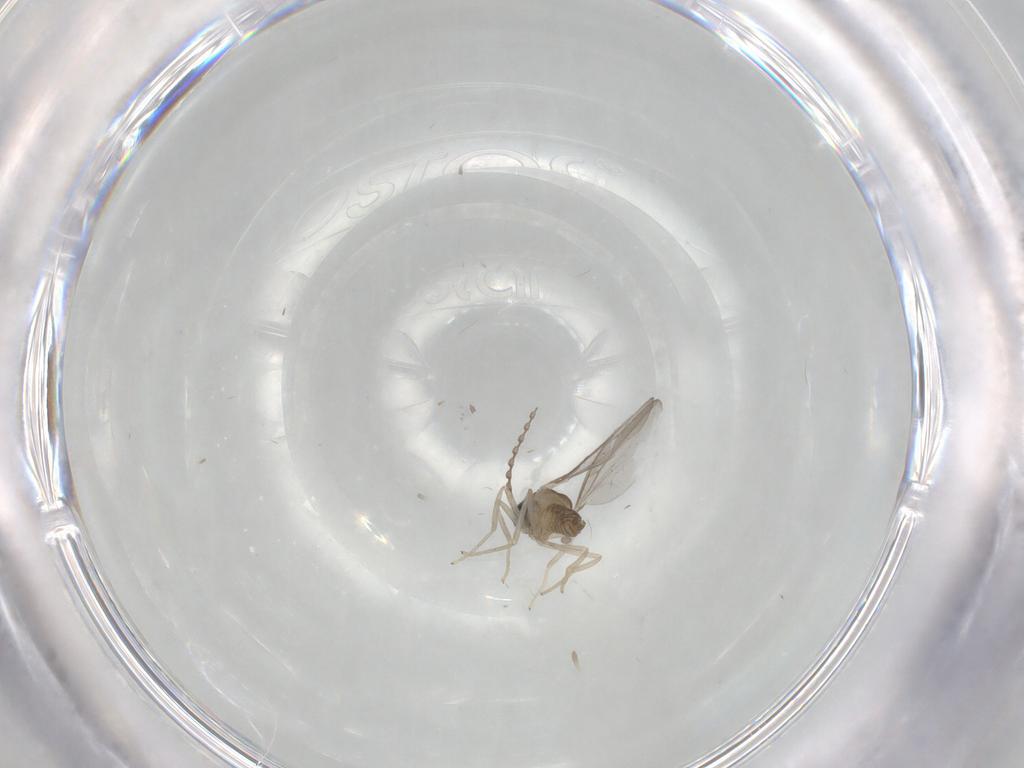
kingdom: Animalia
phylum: Arthropoda
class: Insecta
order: Diptera
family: Cecidomyiidae
